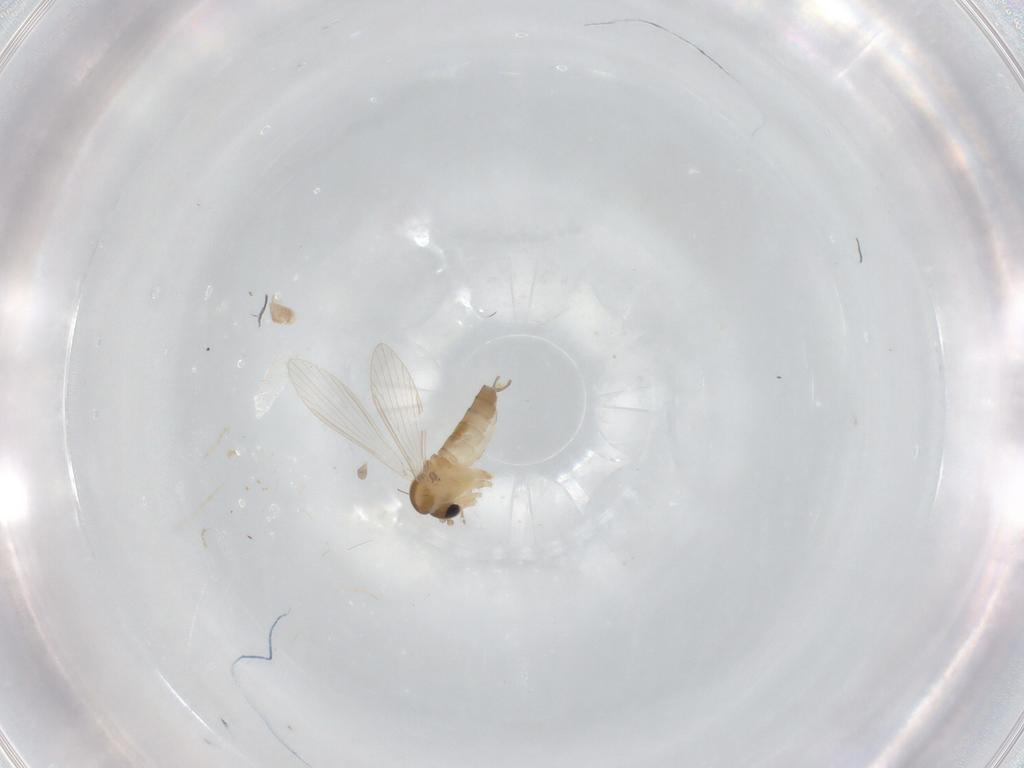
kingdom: Animalia
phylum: Arthropoda
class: Insecta
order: Diptera
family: Psychodidae
